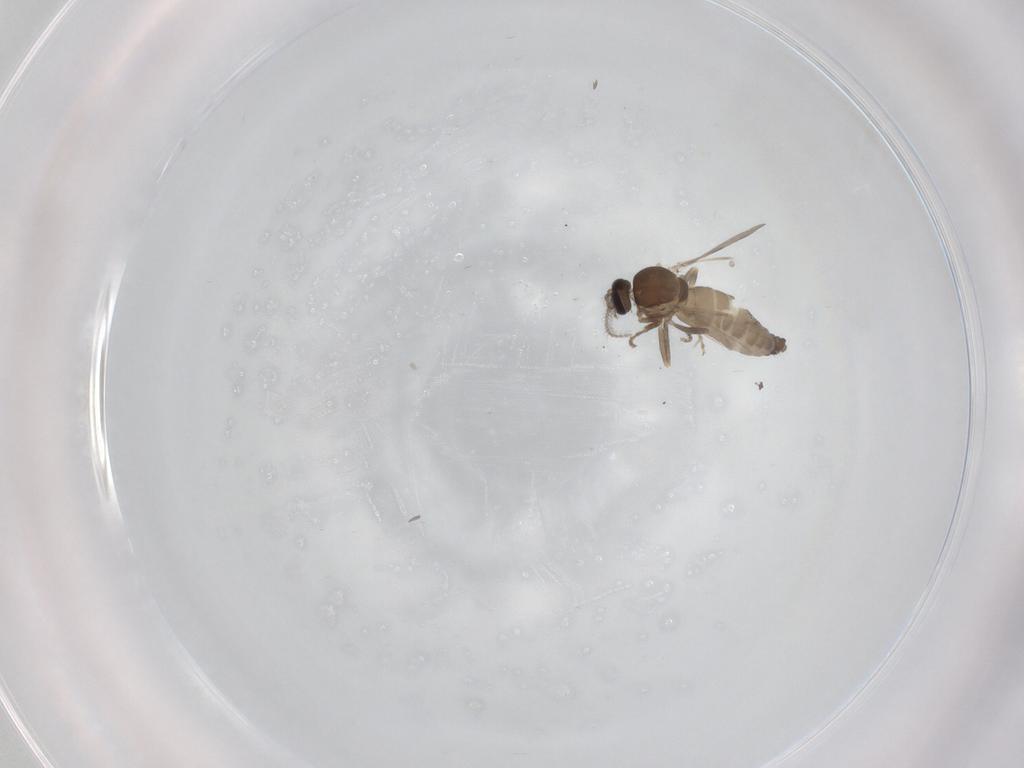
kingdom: Animalia
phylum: Arthropoda
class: Insecta
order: Diptera
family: Ceratopogonidae
